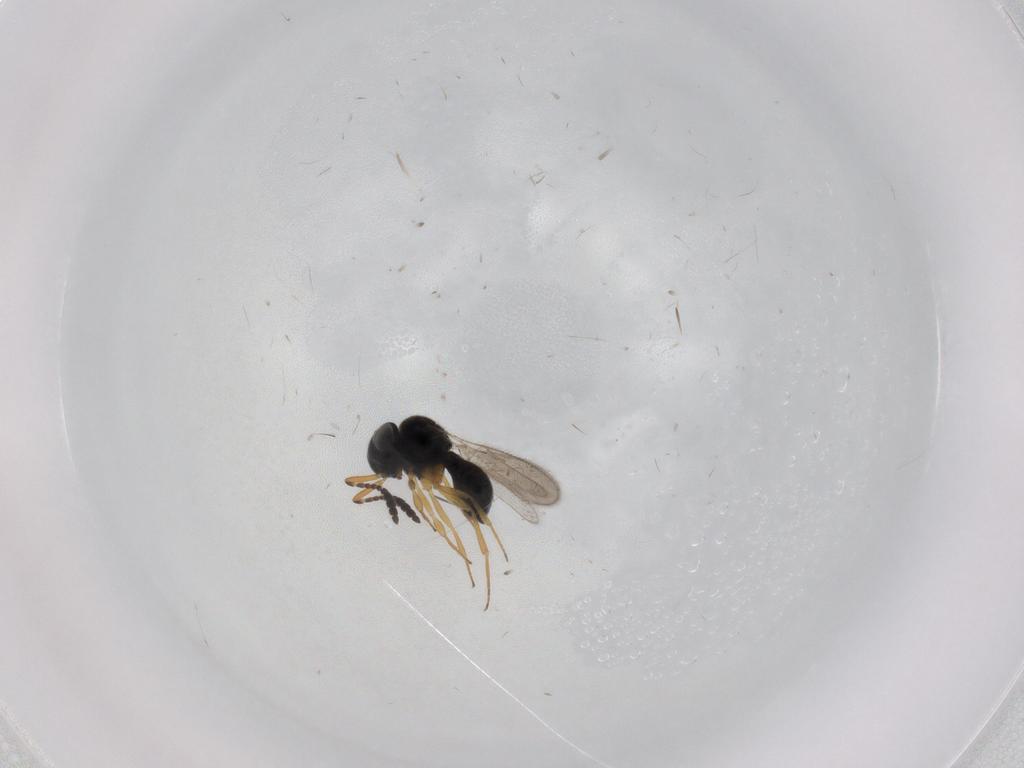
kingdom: Animalia
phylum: Arthropoda
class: Insecta
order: Hymenoptera
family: Scelionidae
